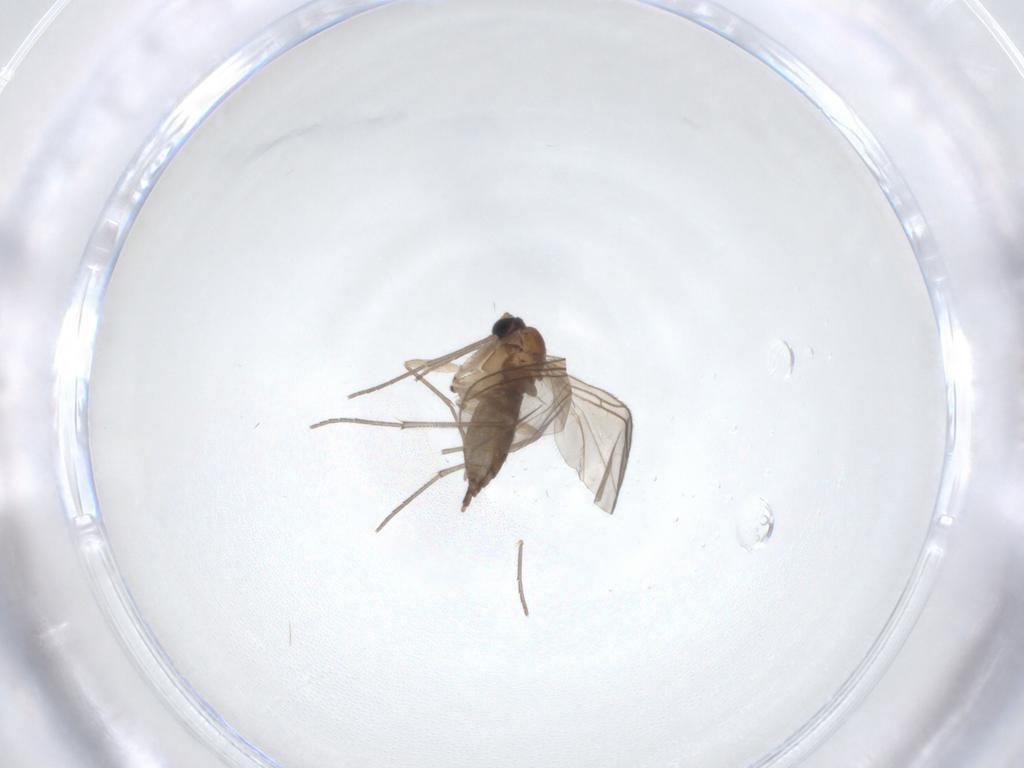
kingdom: Animalia
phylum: Arthropoda
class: Insecta
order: Diptera
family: Sciaridae
